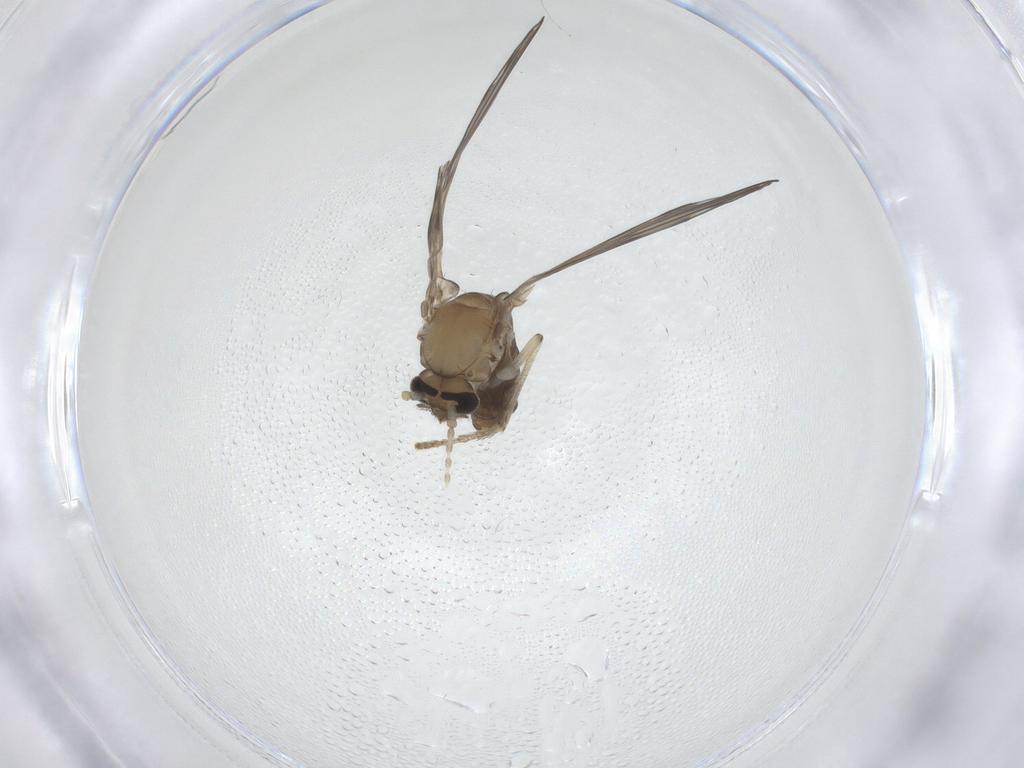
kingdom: Animalia
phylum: Arthropoda
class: Insecta
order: Diptera
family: Psychodidae
